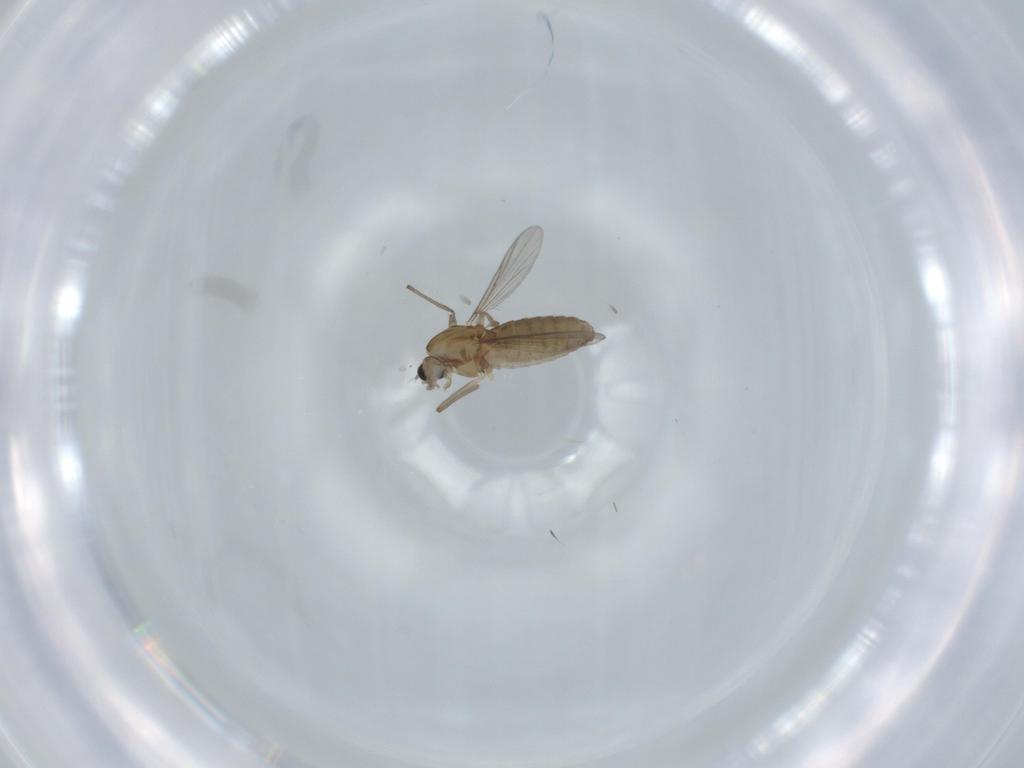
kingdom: Animalia
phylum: Arthropoda
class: Insecta
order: Diptera
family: Chironomidae
